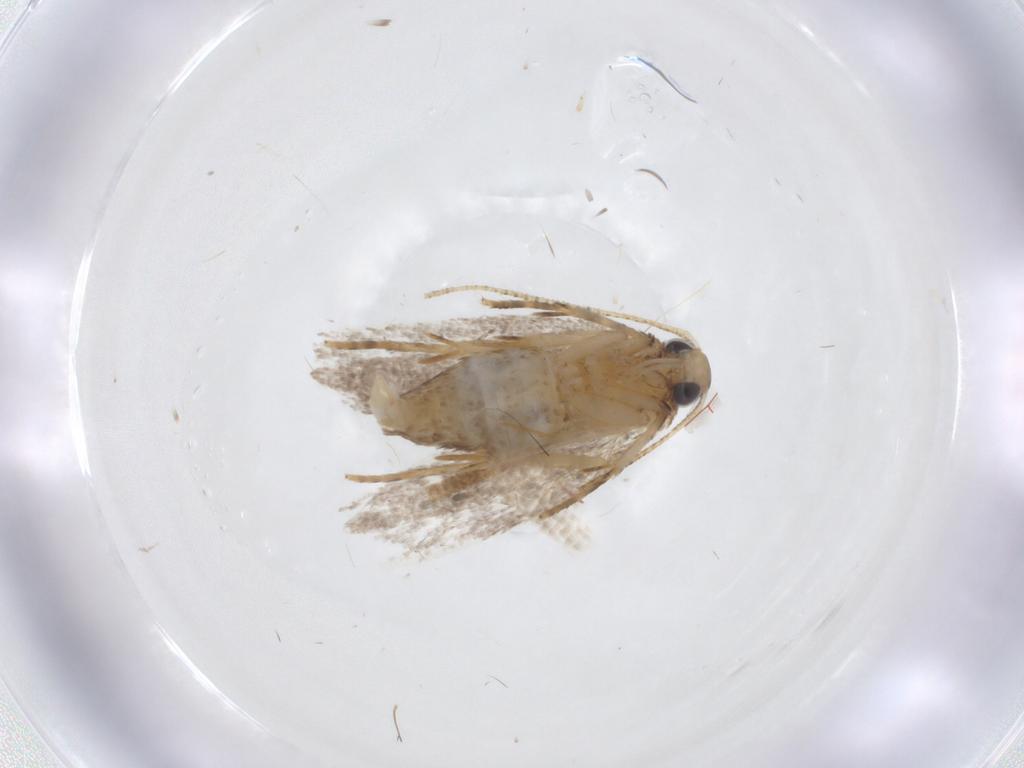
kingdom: Animalia
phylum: Arthropoda
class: Insecta
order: Lepidoptera
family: Oecophoridae
